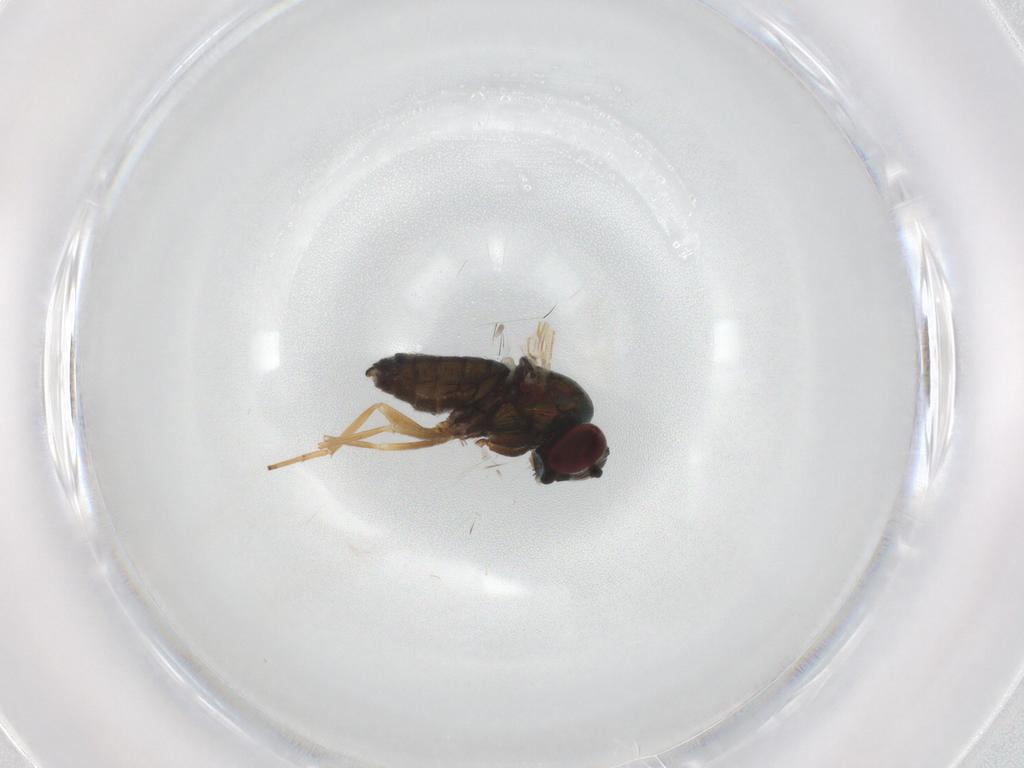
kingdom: Animalia
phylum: Arthropoda
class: Insecta
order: Diptera
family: Dolichopodidae
